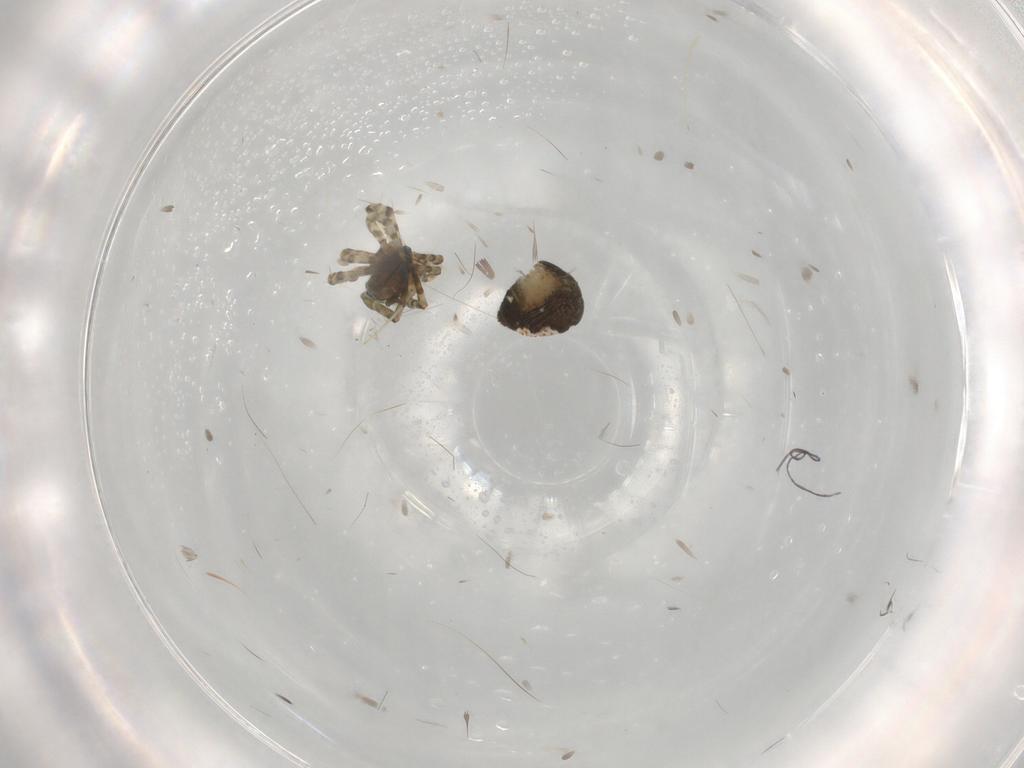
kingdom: Animalia
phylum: Arthropoda
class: Arachnida
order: Araneae
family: Theridiidae
